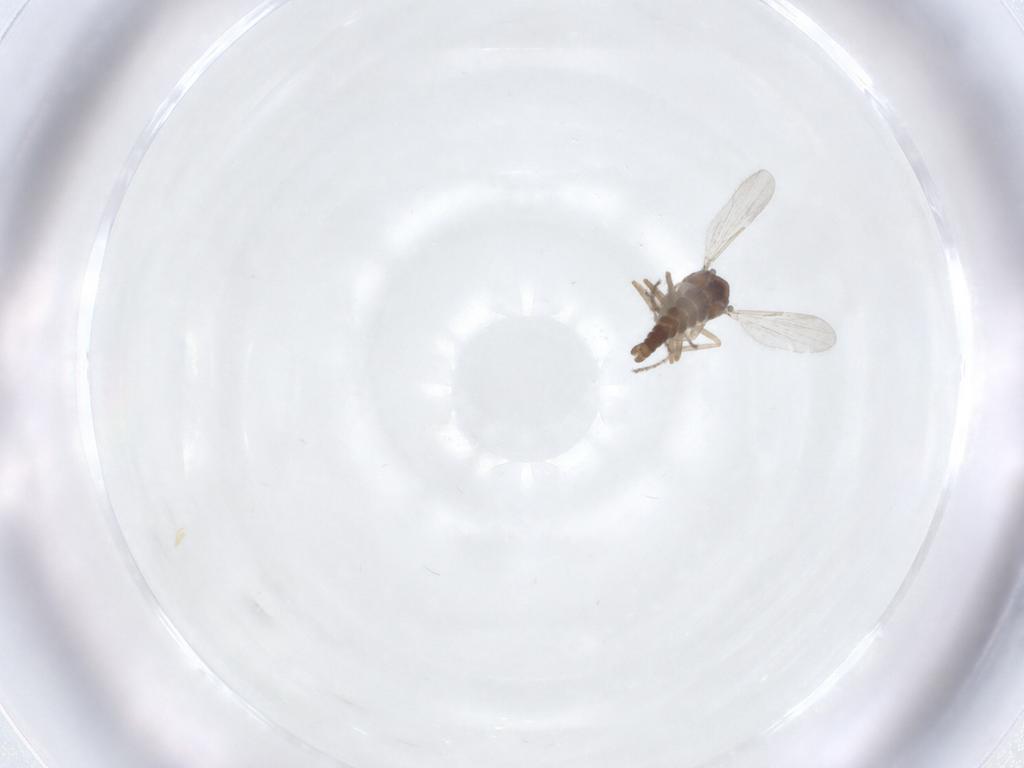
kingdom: Animalia
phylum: Arthropoda
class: Insecta
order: Diptera
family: Ceratopogonidae
